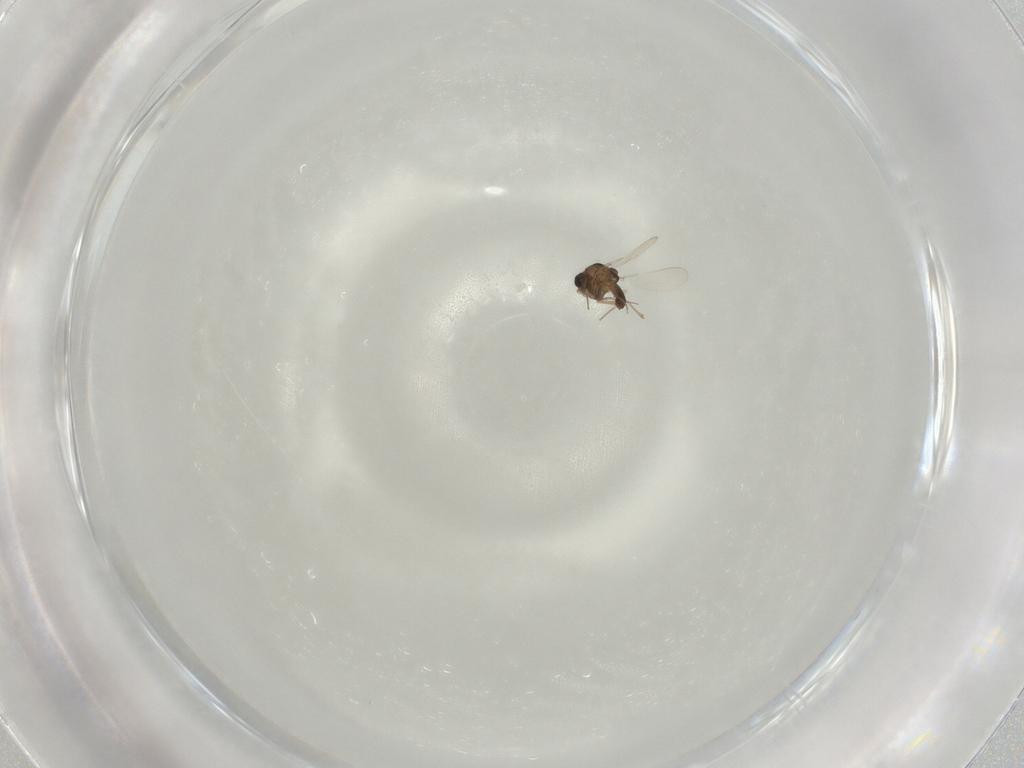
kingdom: Animalia
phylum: Arthropoda
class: Insecta
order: Diptera
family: Chironomidae
